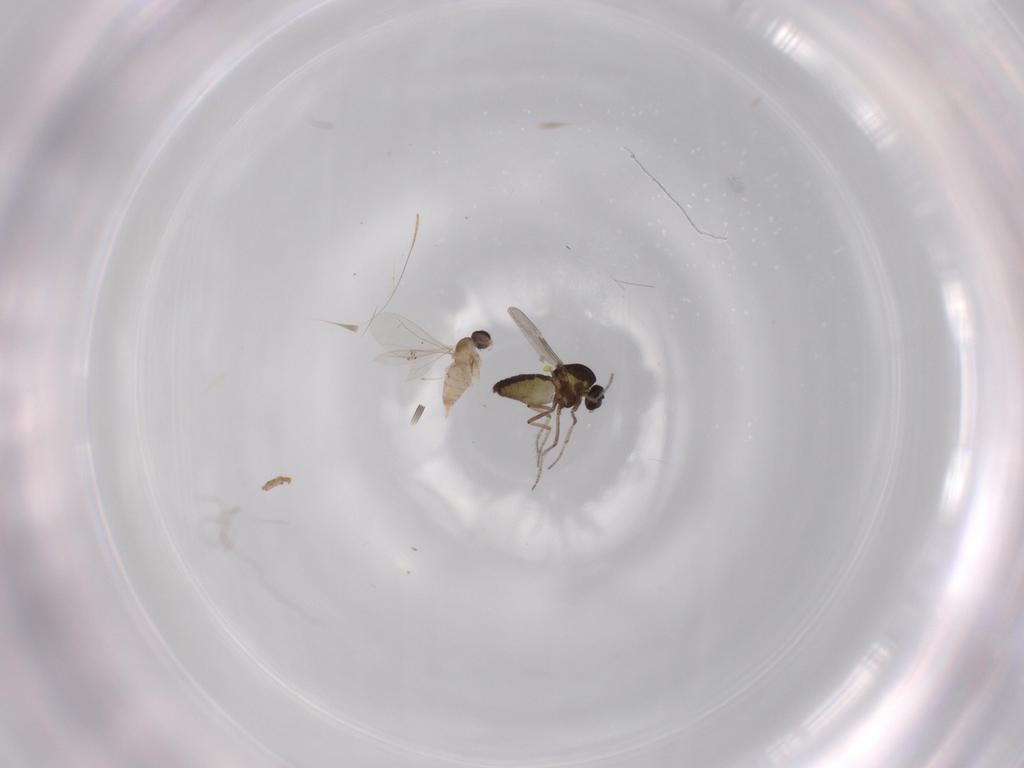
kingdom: Animalia
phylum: Arthropoda
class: Insecta
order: Diptera
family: Ceratopogonidae
